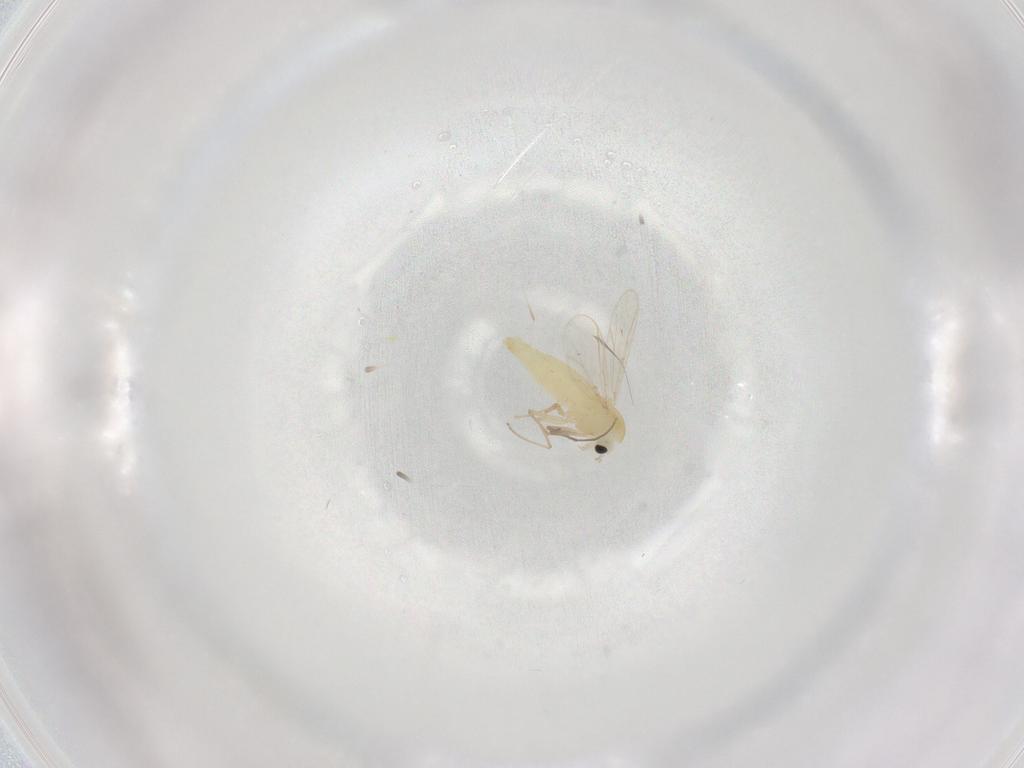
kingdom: Animalia
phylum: Arthropoda
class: Insecta
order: Diptera
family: Chironomidae
